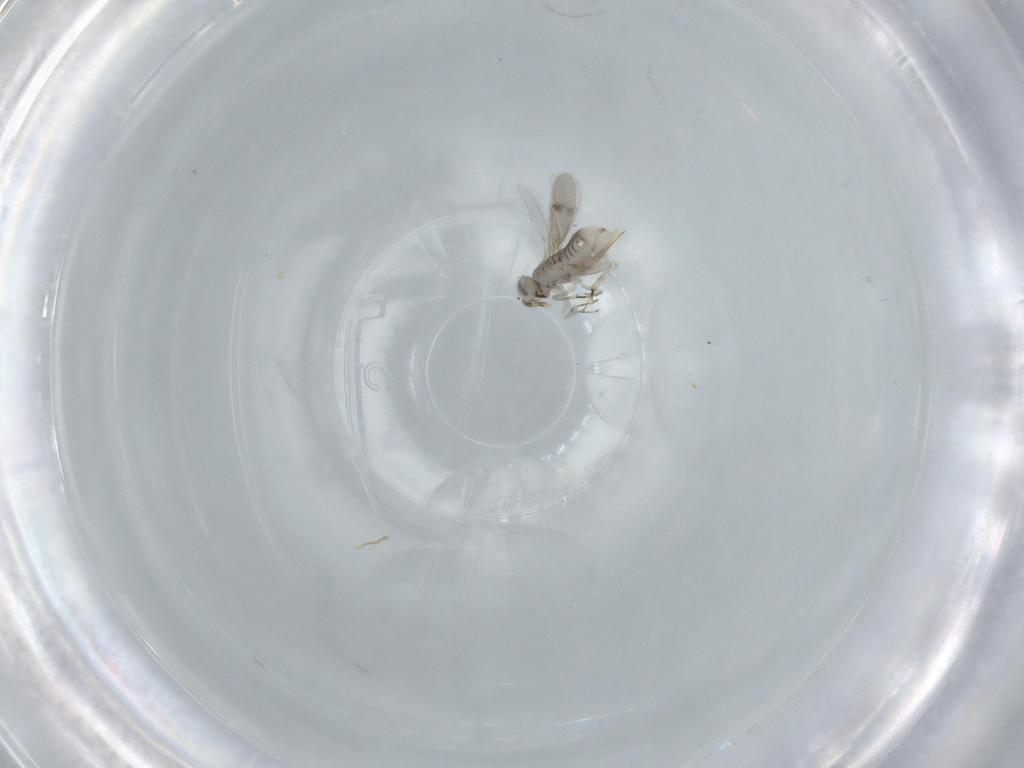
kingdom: Animalia
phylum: Arthropoda
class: Insecta
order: Hymenoptera
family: Aphelinidae
